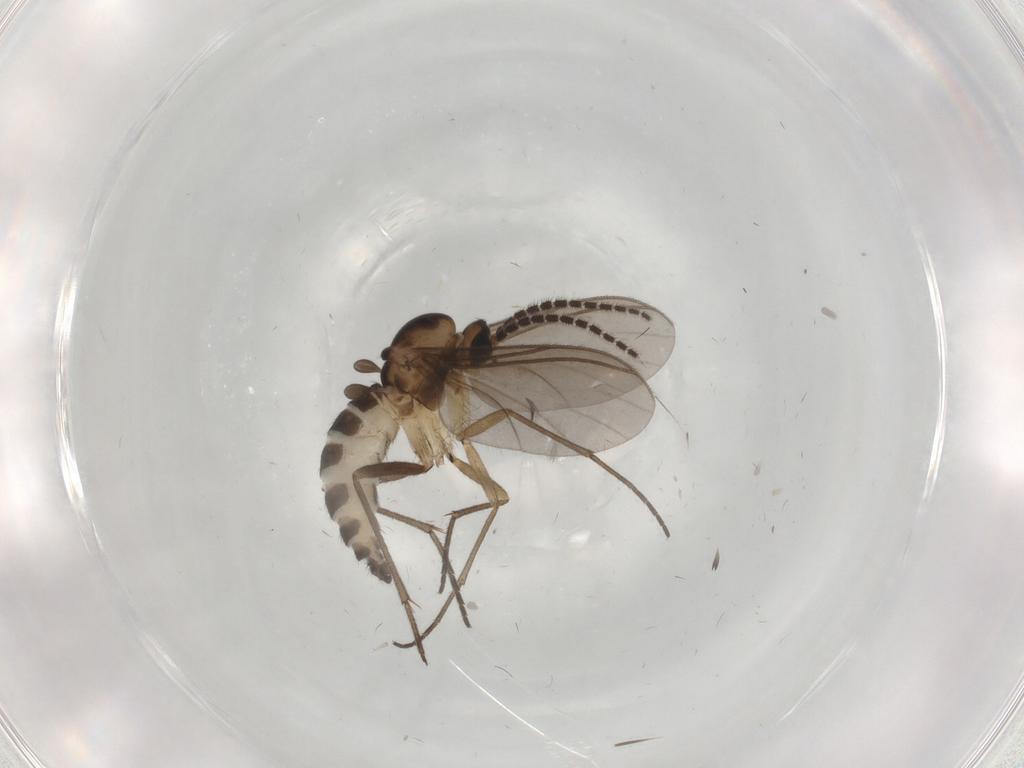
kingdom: Animalia
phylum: Arthropoda
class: Insecta
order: Diptera
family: Sciaridae
